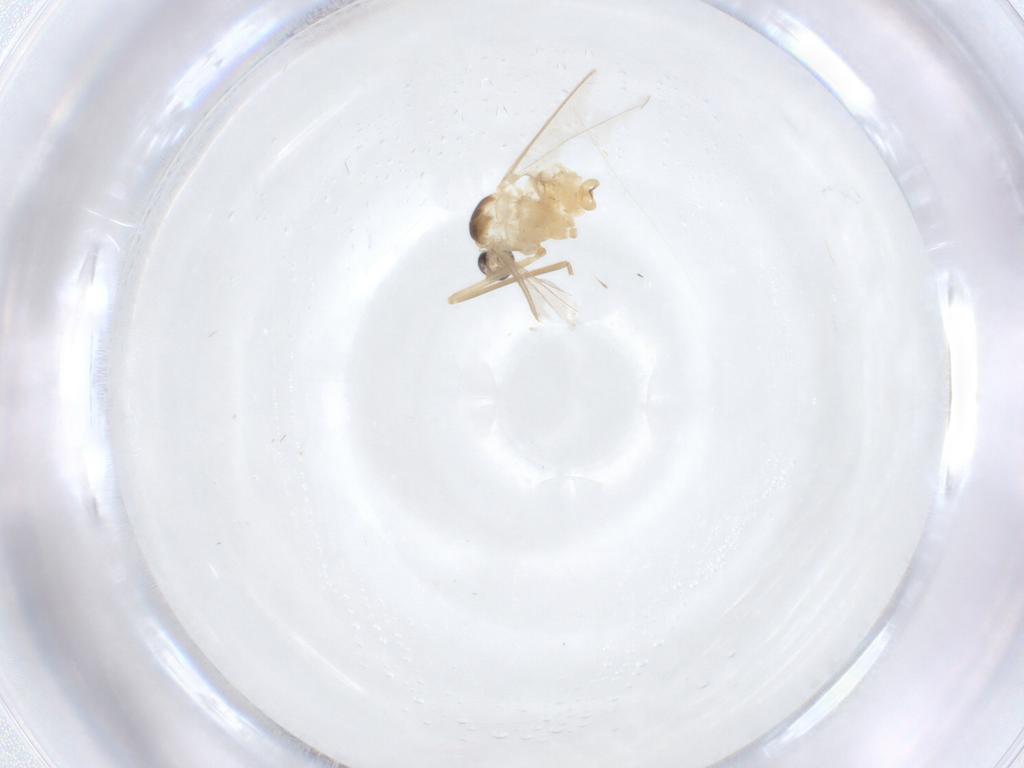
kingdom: Animalia
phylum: Arthropoda
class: Insecta
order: Diptera
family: Cecidomyiidae
